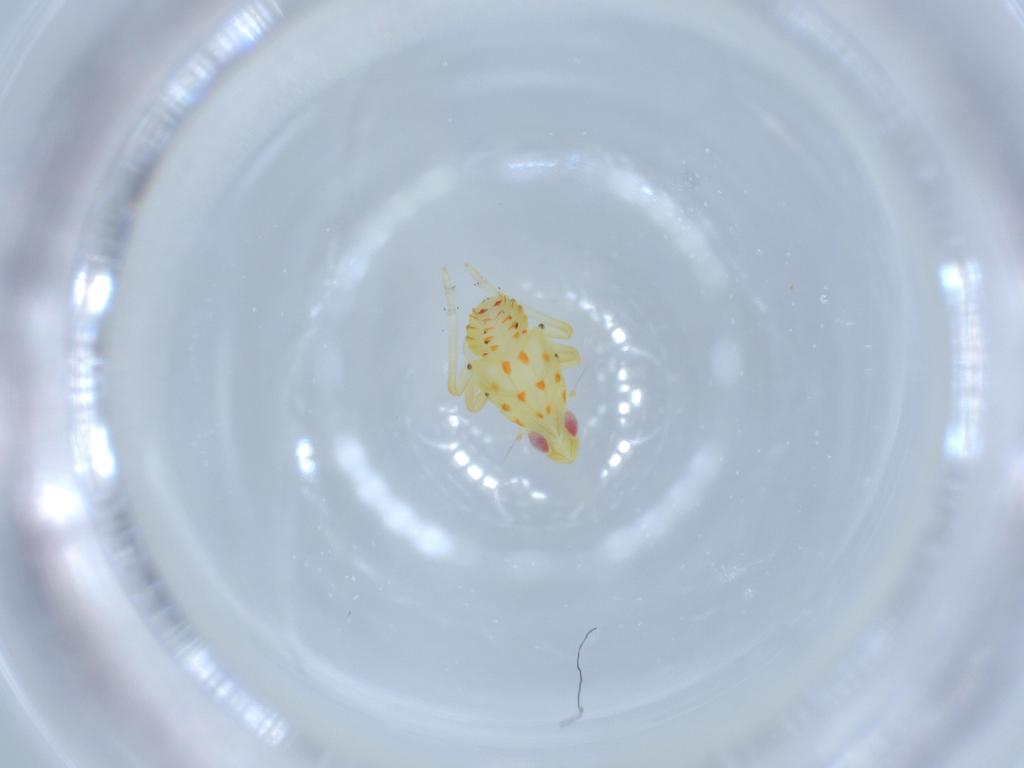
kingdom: Animalia
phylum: Arthropoda
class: Insecta
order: Hemiptera
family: Tropiduchidae
